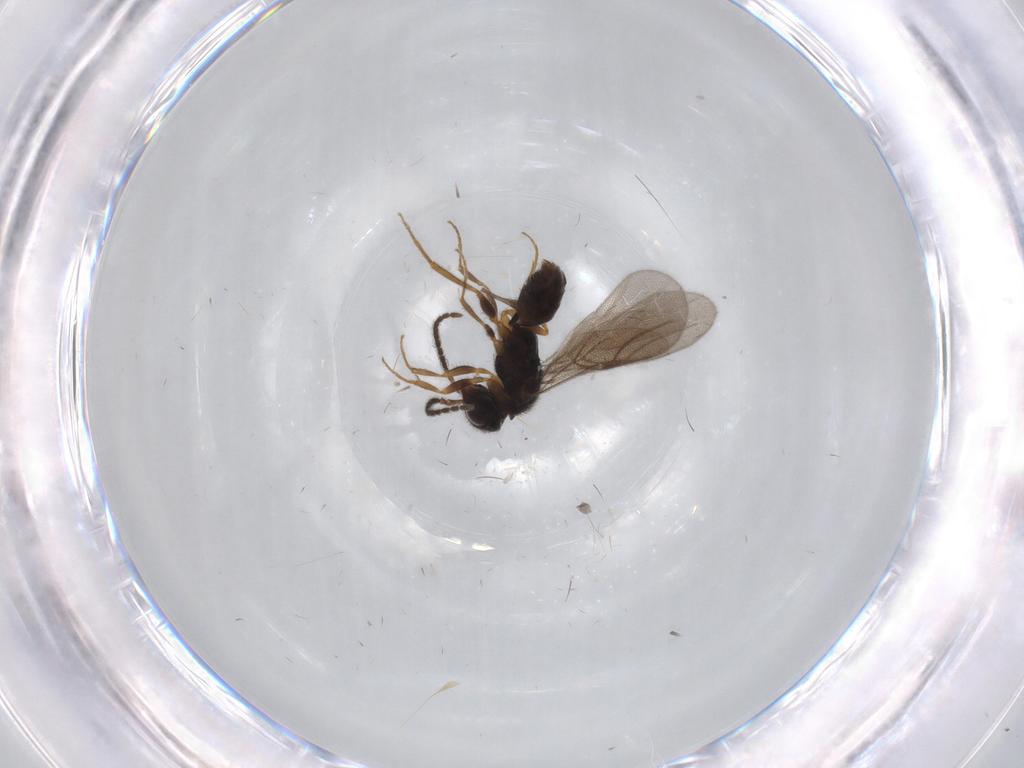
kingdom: Animalia
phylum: Arthropoda
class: Insecta
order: Hymenoptera
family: Bethylidae
